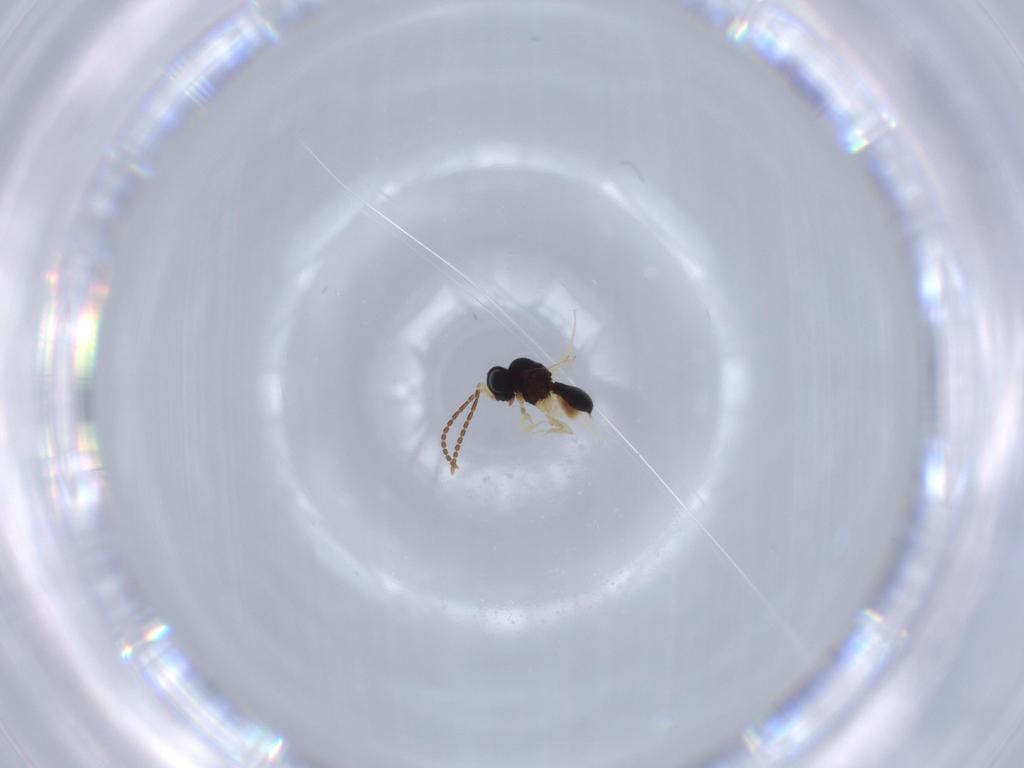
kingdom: Animalia
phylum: Arthropoda
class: Insecta
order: Hymenoptera
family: Scelionidae
